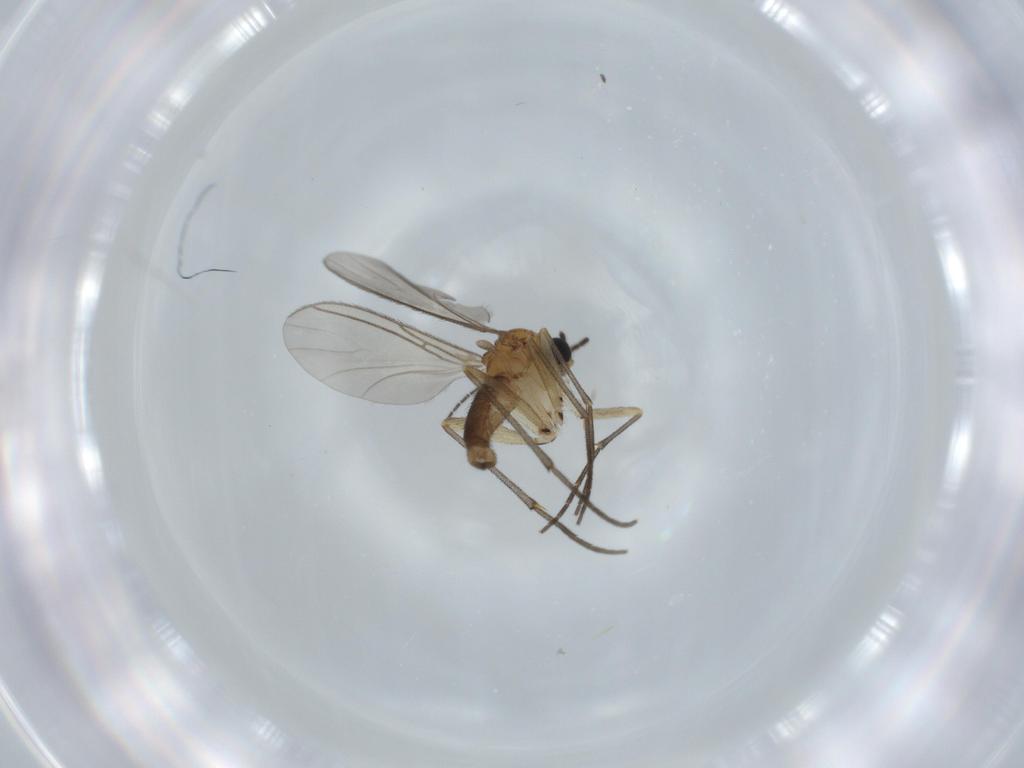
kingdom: Animalia
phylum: Arthropoda
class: Insecta
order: Diptera
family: Sciaridae
